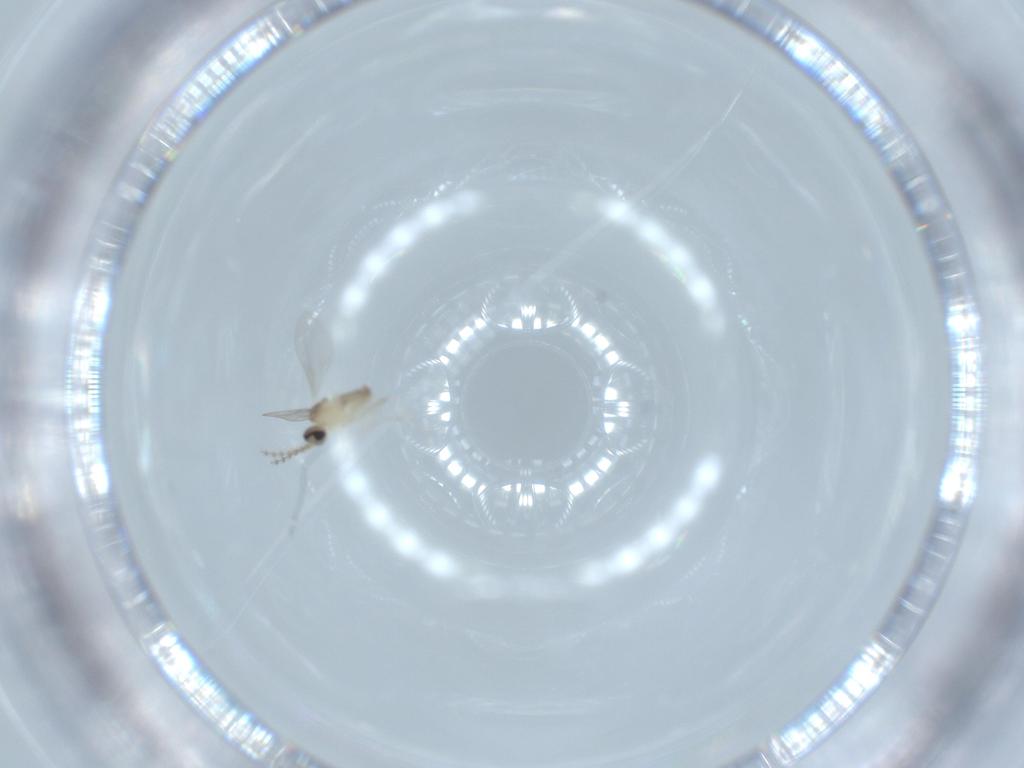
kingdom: Animalia
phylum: Arthropoda
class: Insecta
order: Diptera
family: Cecidomyiidae
